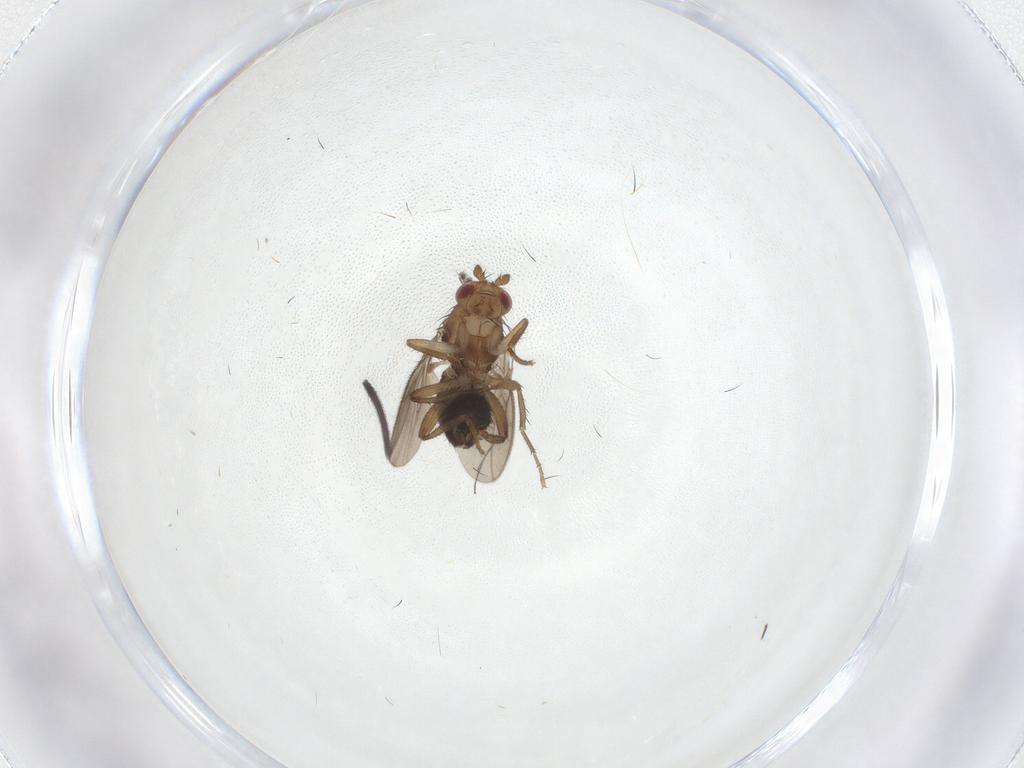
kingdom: Animalia
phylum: Arthropoda
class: Insecta
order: Diptera
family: Sphaeroceridae
